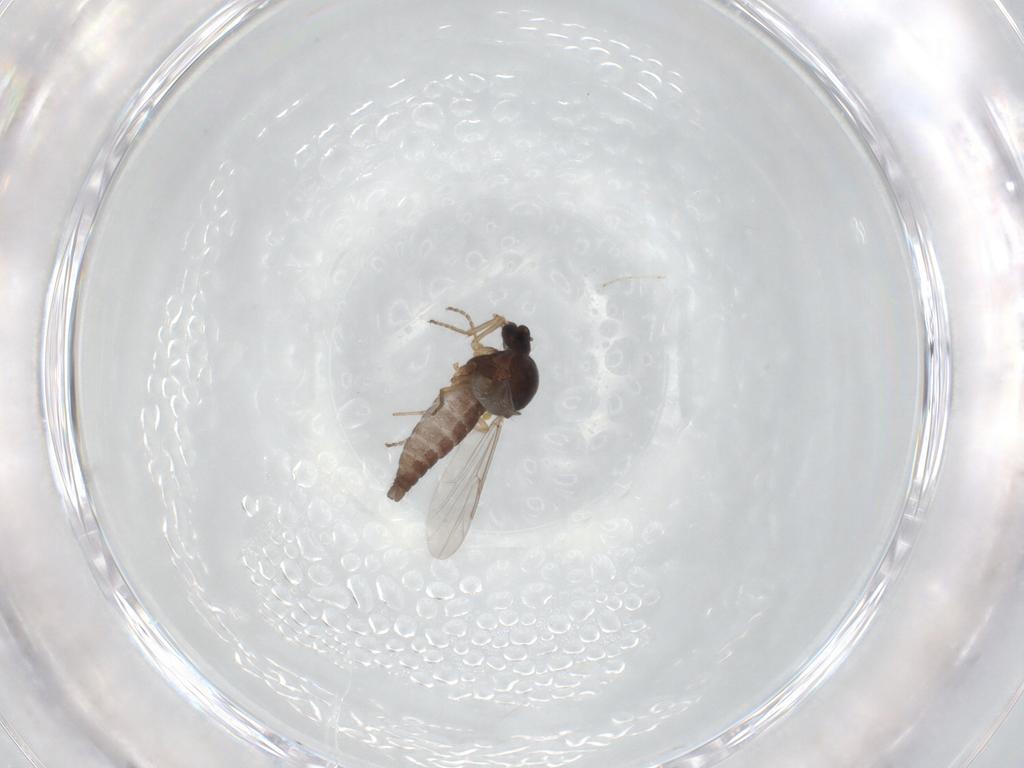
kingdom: Animalia
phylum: Arthropoda
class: Insecta
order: Diptera
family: Ceratopogonidae
